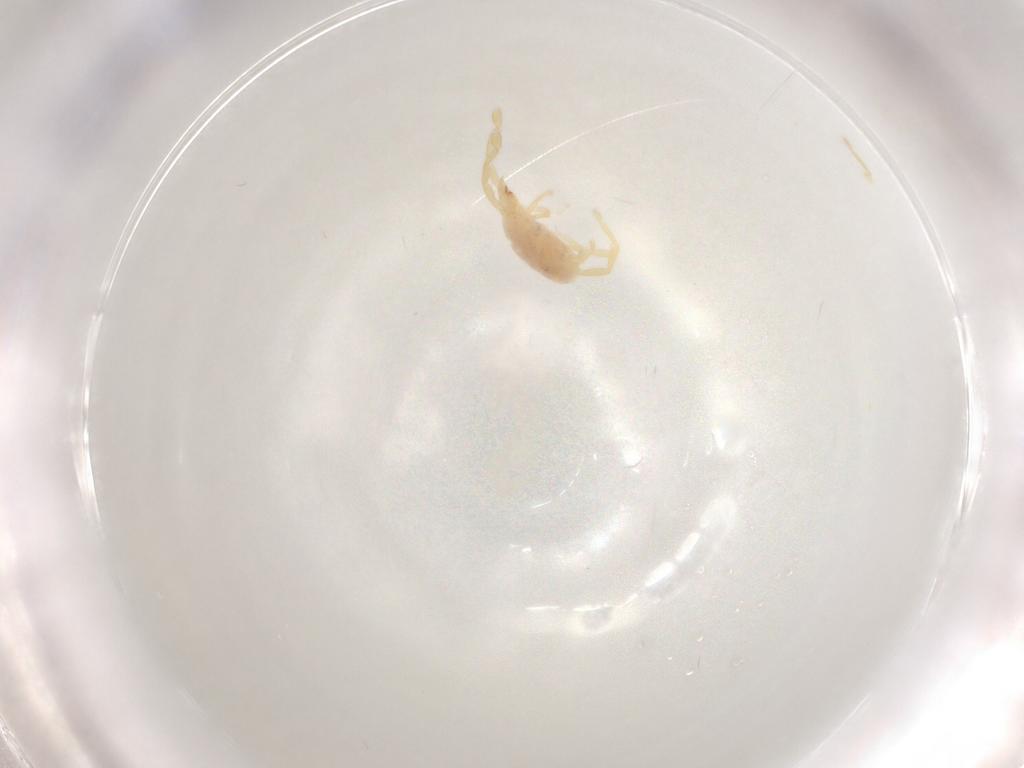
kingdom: Animalia
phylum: Arthropoda
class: Arachnida
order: Trombidiformes
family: Erythraeidae
